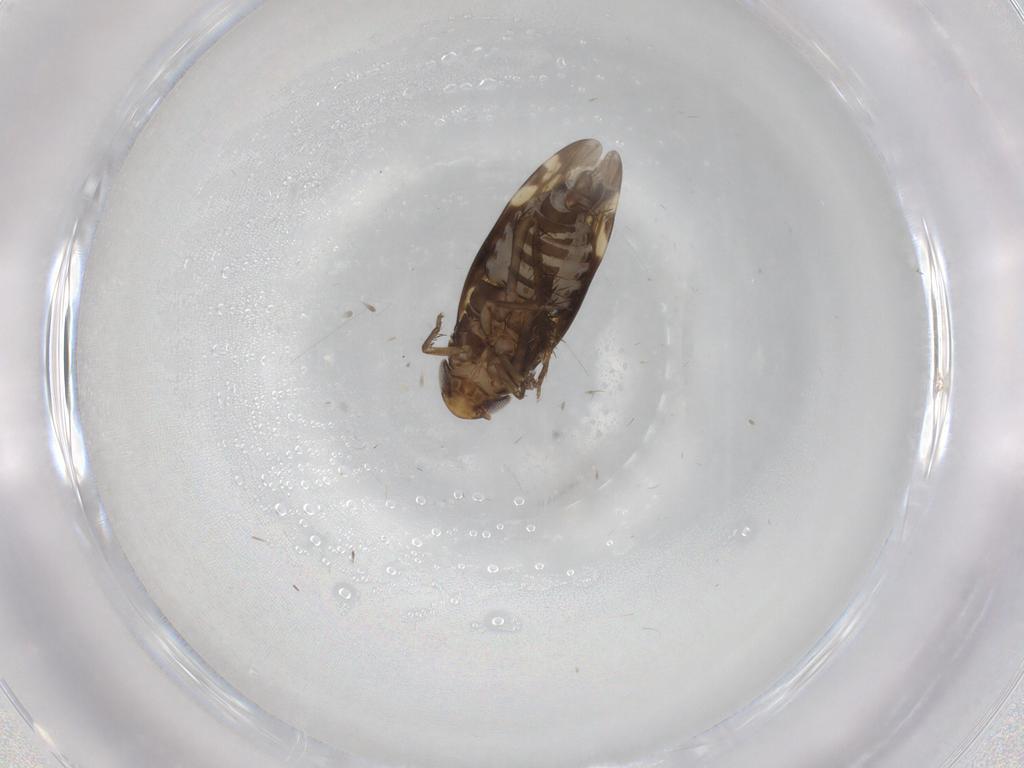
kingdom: Animalia
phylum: Arthropoda
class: Insecta
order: Hemiptera
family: Cicadellidae
